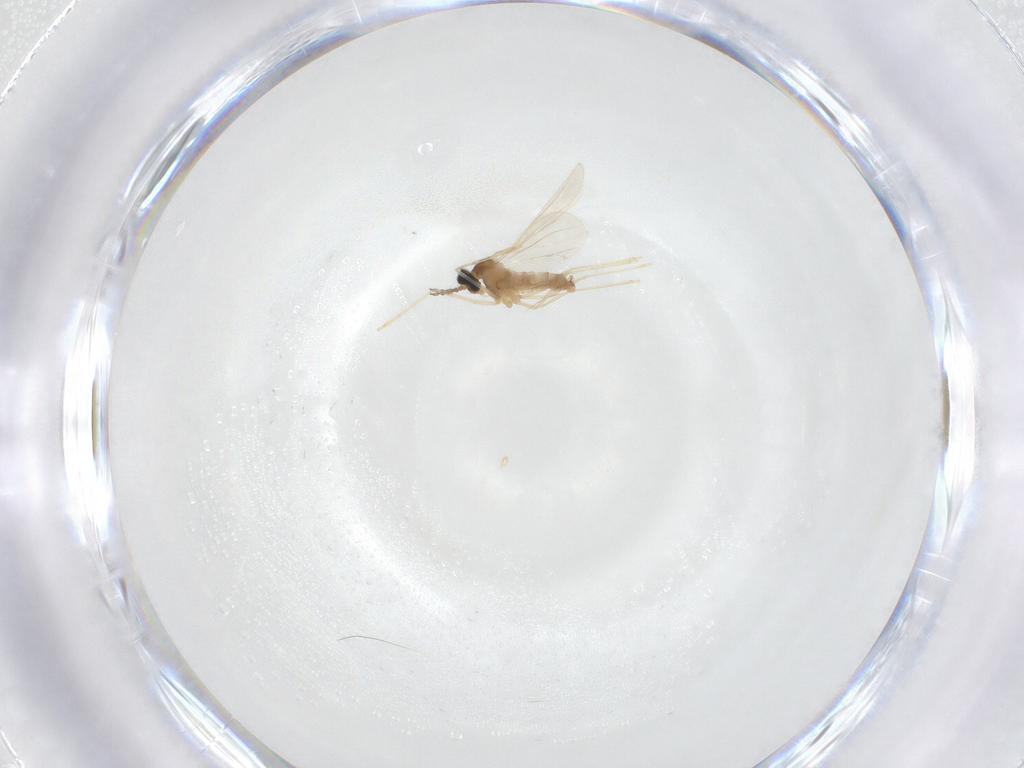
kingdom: Animalia
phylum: Arthropoda
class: Insecta
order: Diptera
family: Cecidomyiidae
